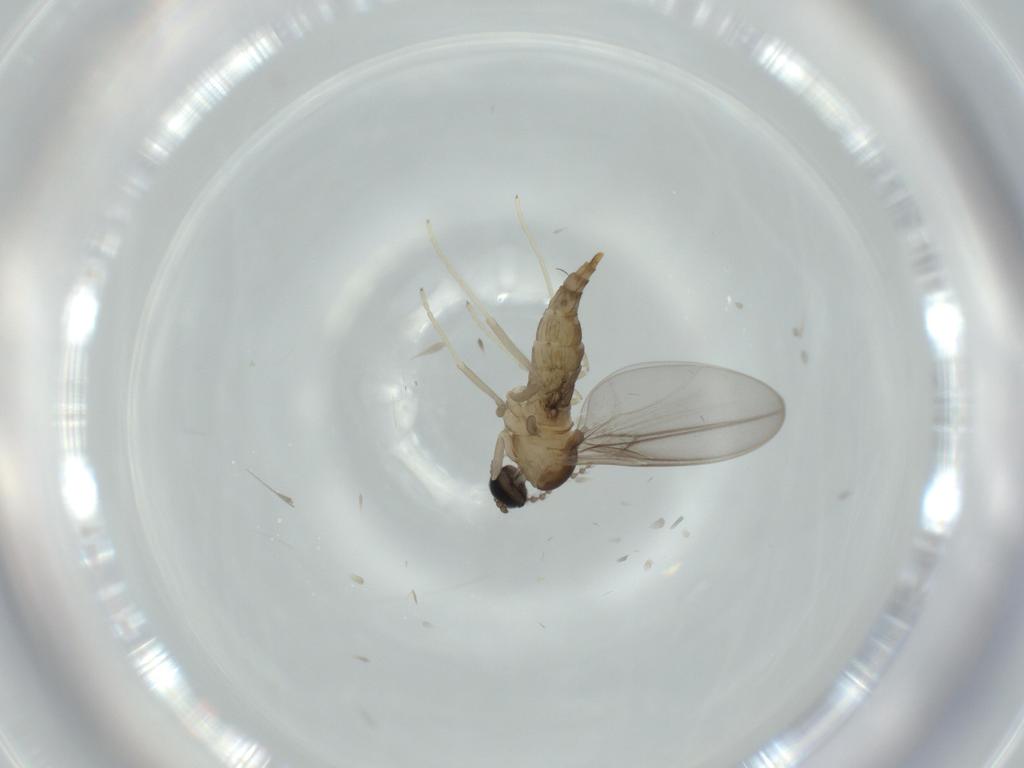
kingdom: Animalia
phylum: Arthropoda
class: Insecta
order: Diptera
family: Cecidomyiidae
